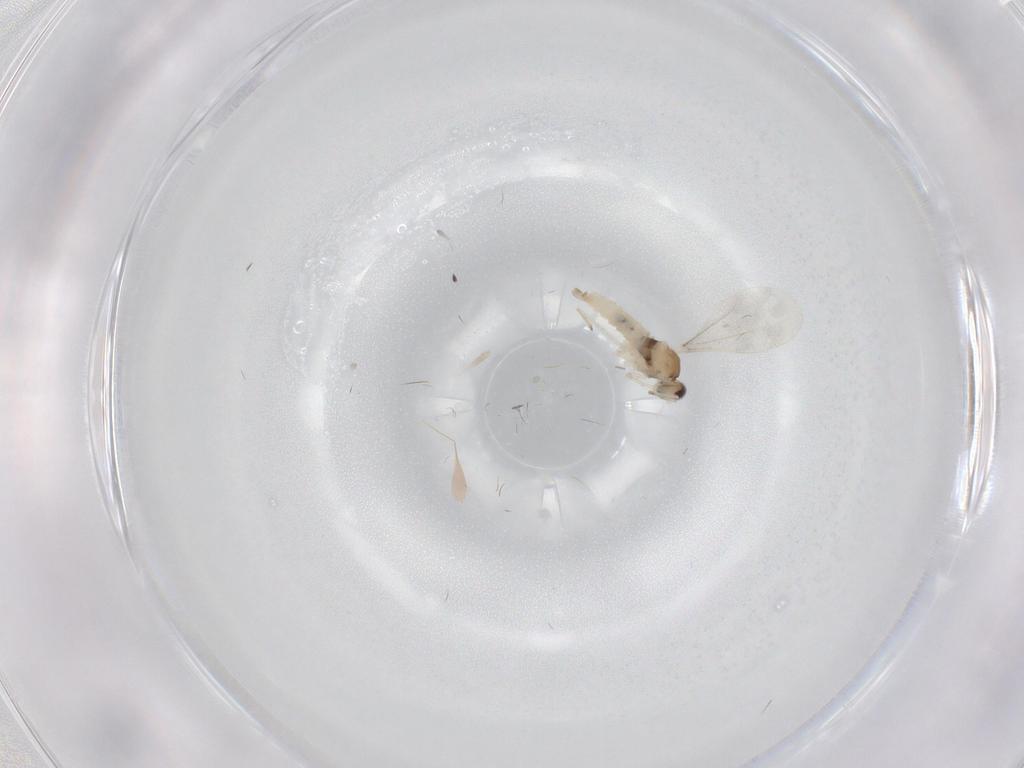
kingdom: Animalia
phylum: Arthropoda
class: Insecta
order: Diptera
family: Cecidomyiidae
